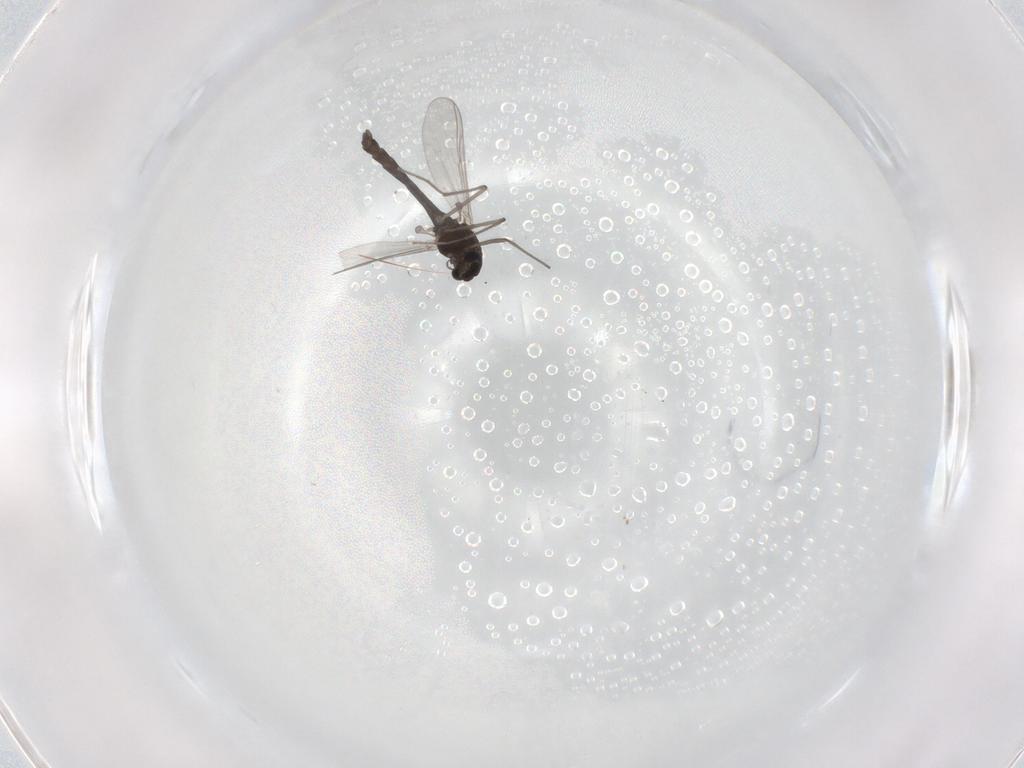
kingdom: Animalia
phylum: Arthropoda
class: Insecta
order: Diptera
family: Chironomidae
